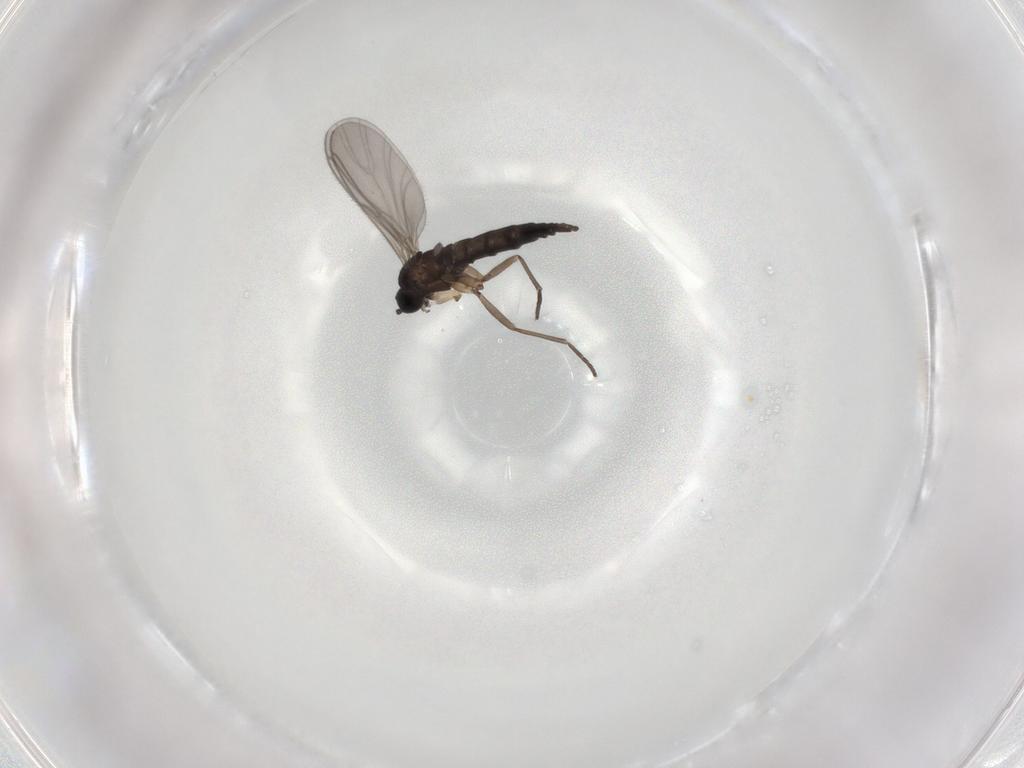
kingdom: Animalia
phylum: Arthropoda
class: Insecta
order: Diptera
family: Sciaridae
